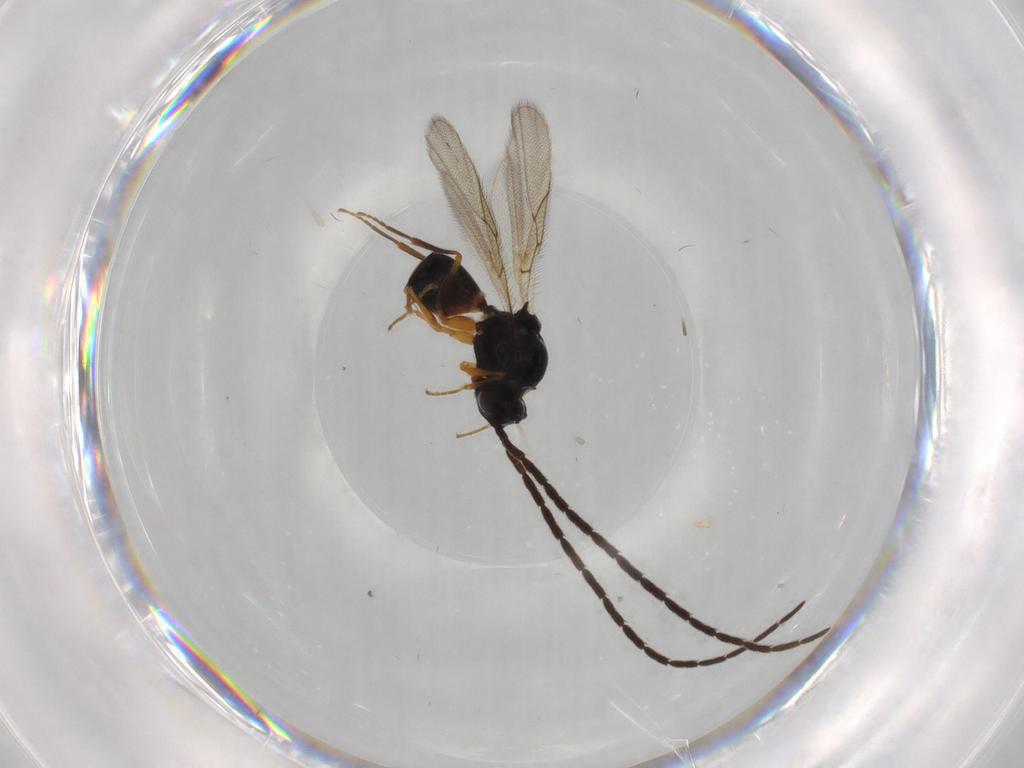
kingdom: Animalia
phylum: Arthropoda
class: Insecta
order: Hymenoptera
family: Figitidae
